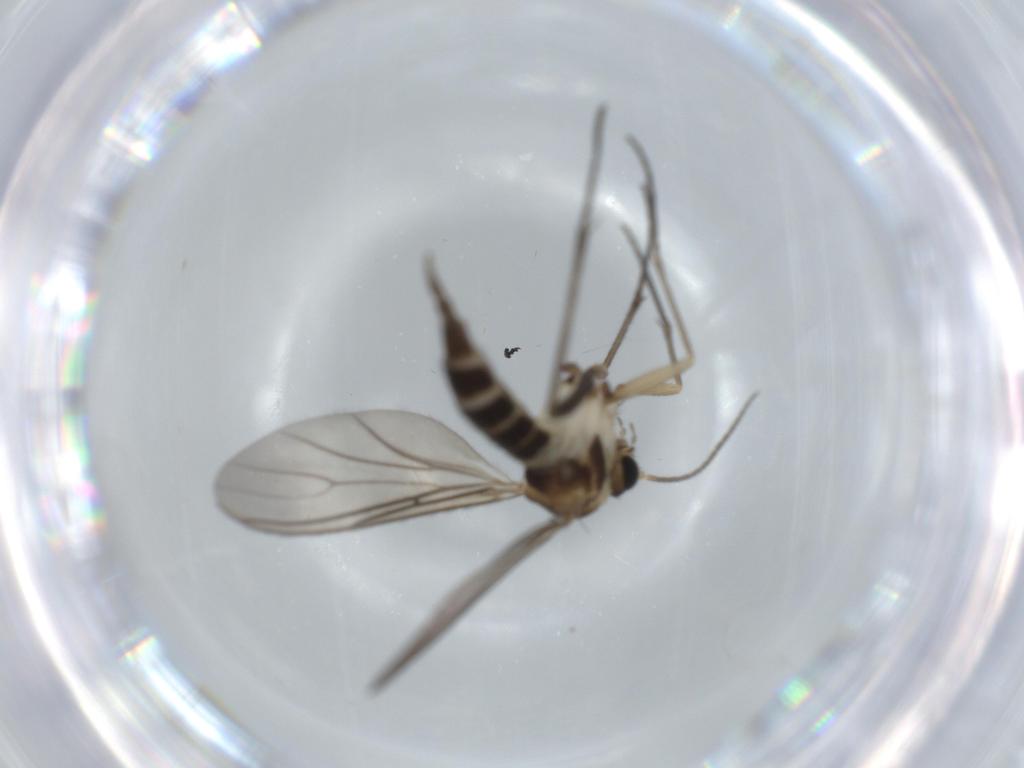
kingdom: Animalia
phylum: Arthropoda
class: Insecta
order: Diptera
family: Sciaridae
